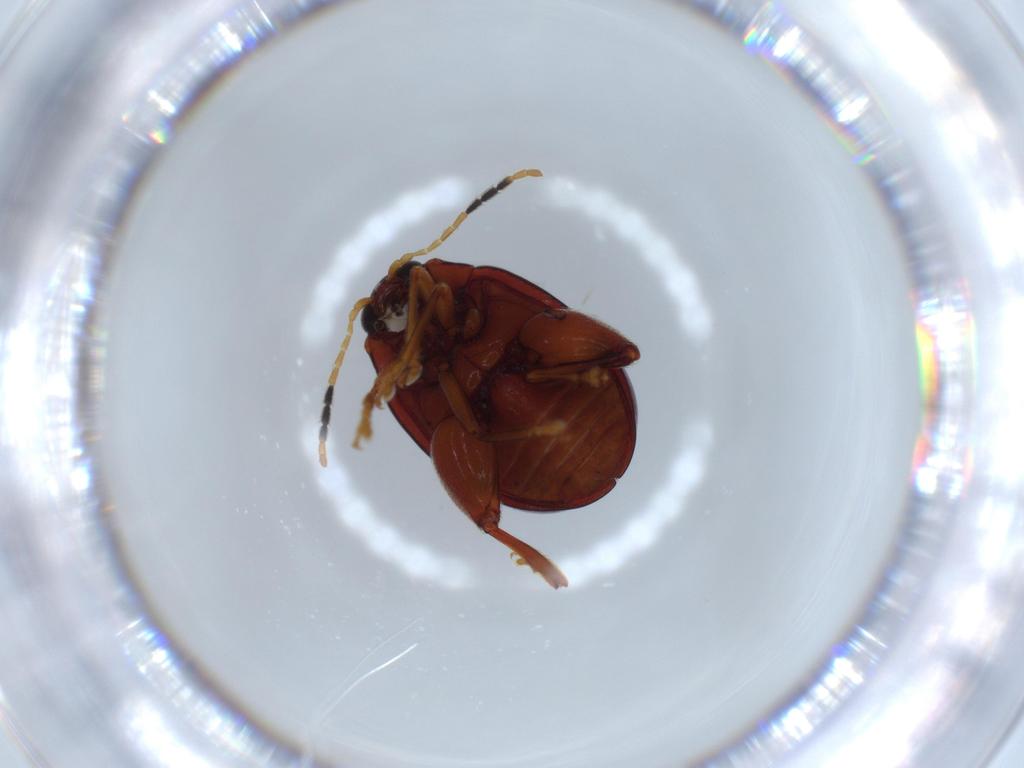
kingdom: Animalia
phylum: Arthropoda
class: Insecta
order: Coleoptera
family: Chrysomelidae
